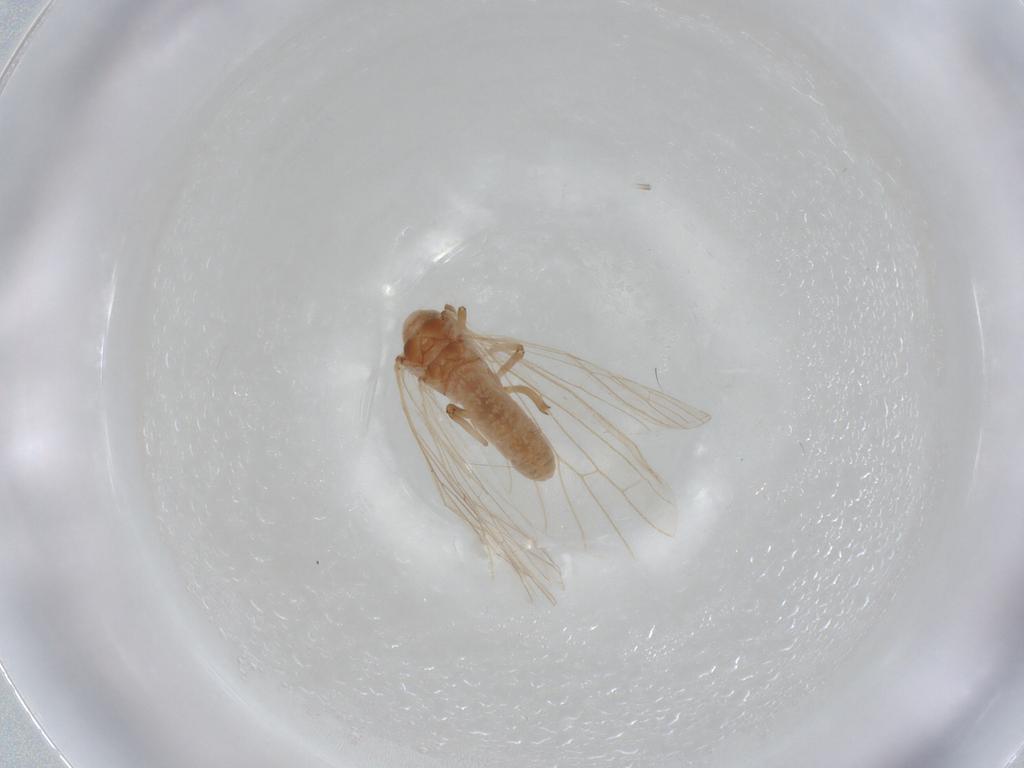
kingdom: Animalia
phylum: Arthropoda
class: Insecta
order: Neuroptera
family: Coniopterygidae
